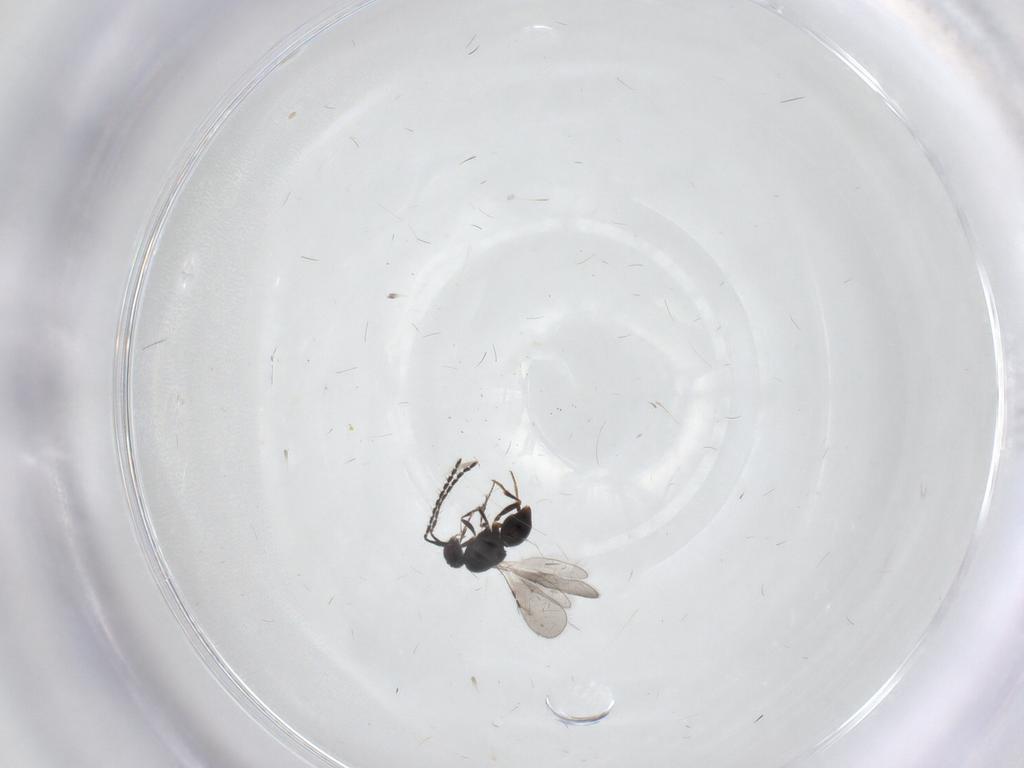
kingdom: Animalia
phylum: Arthropoda
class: Insecta
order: Hymenoptera
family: Ceraphronidae
